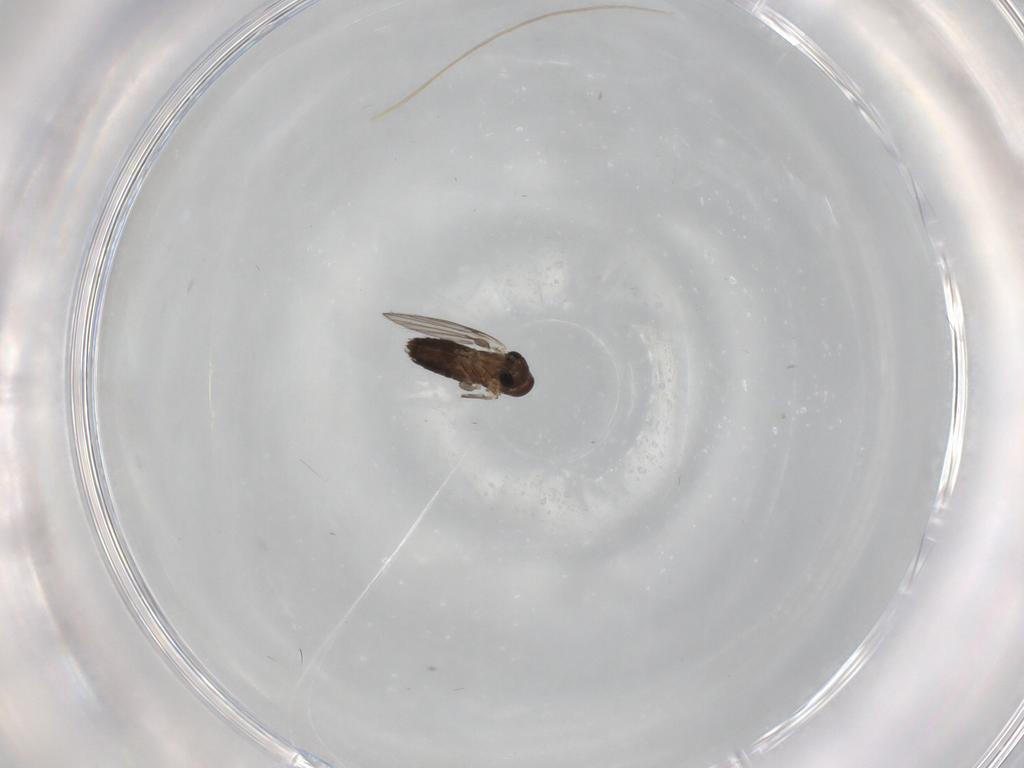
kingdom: Animalia
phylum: Arthropoda
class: Insecta
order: Diptera
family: Psychodidae
